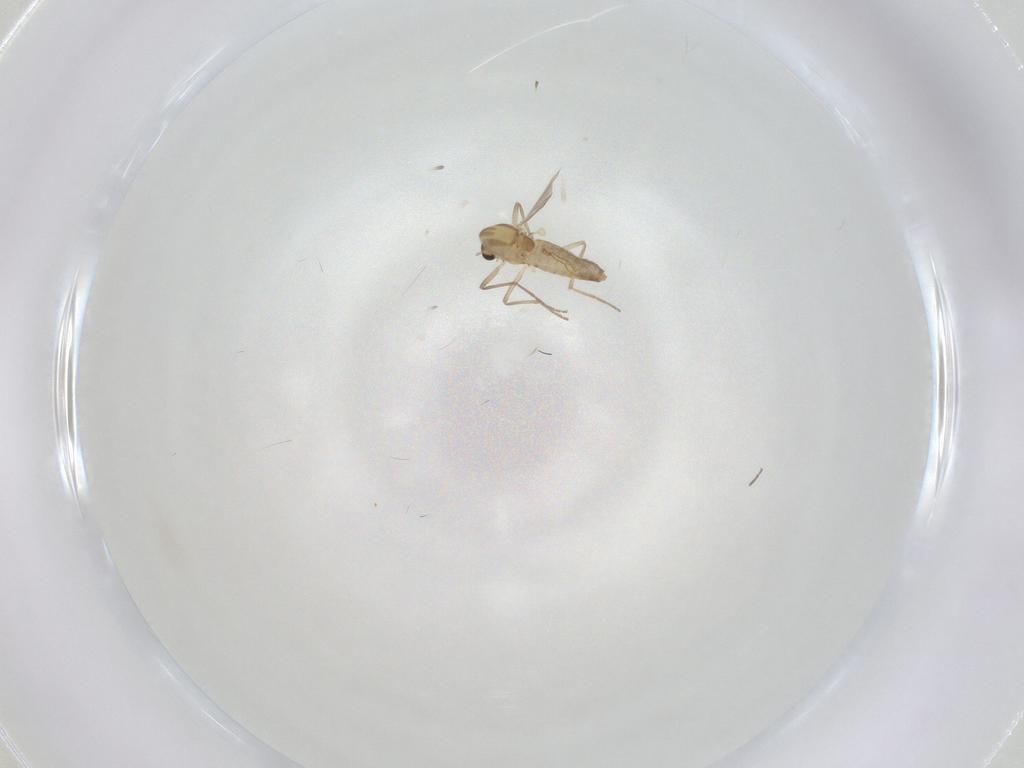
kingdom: Animalia
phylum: Arthropoda
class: Insecta
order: Diptera
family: Chironomidae
